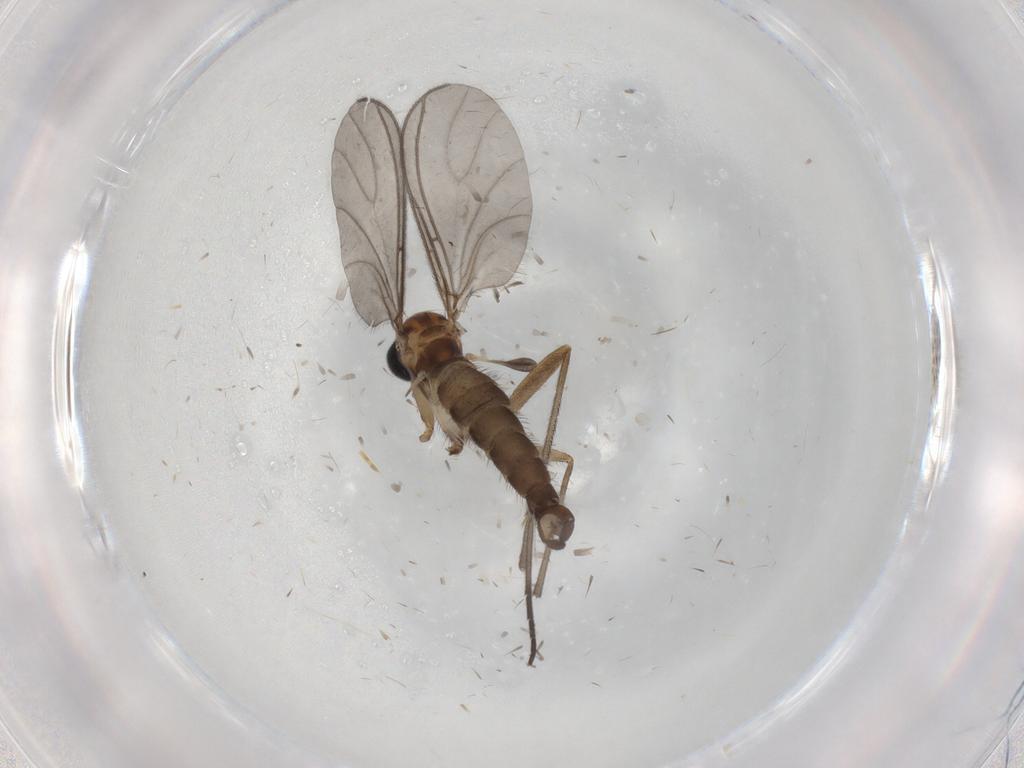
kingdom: Animalia
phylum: Arthropoda
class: Insecta
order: Diptera
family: Sciaridae
